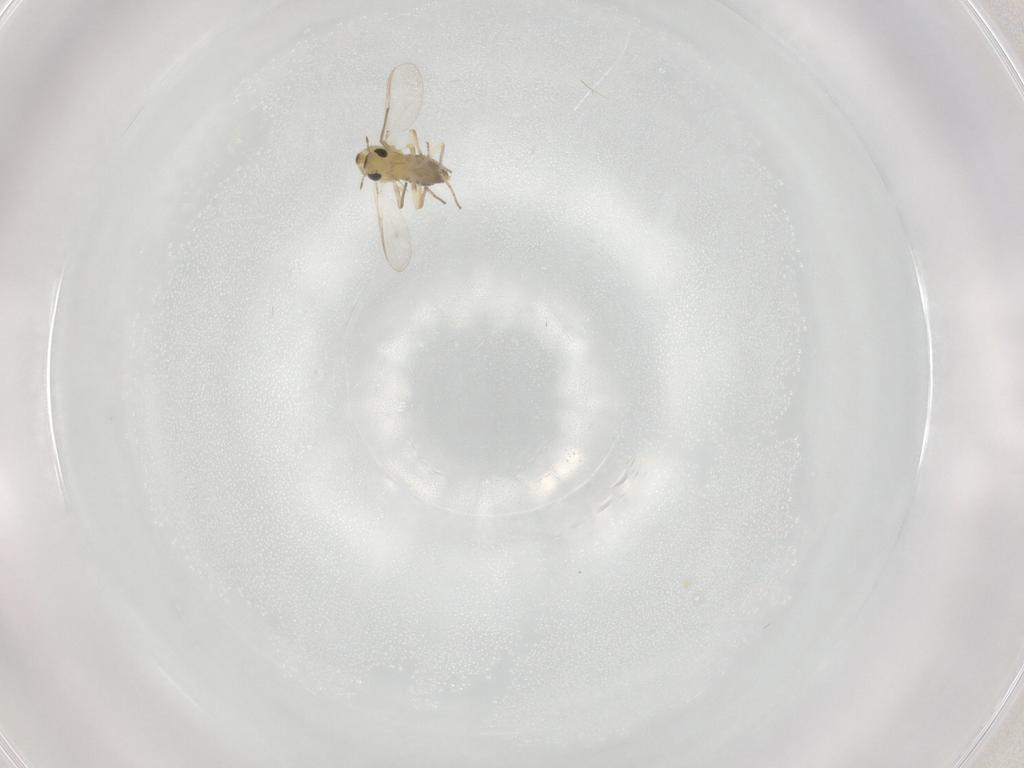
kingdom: Animalia
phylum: Arthropoda
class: Insecta
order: Diptera
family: Chironomidae
